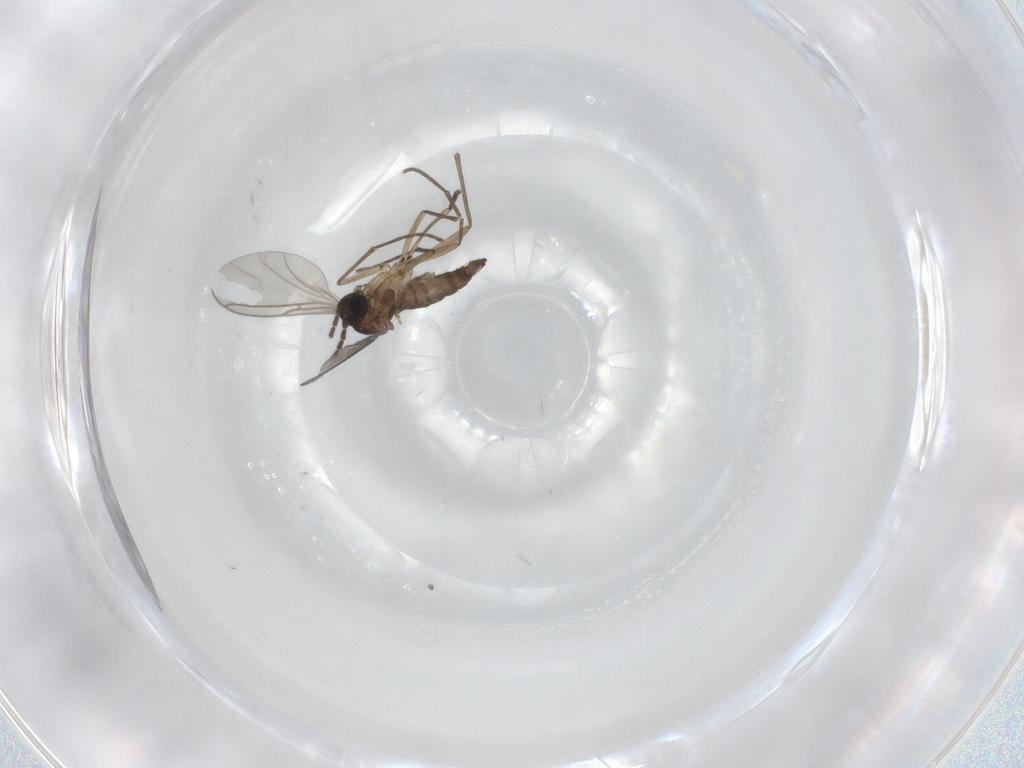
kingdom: Animalia
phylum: Arthropoda
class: Insecta
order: Diptera
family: Sciaridae
